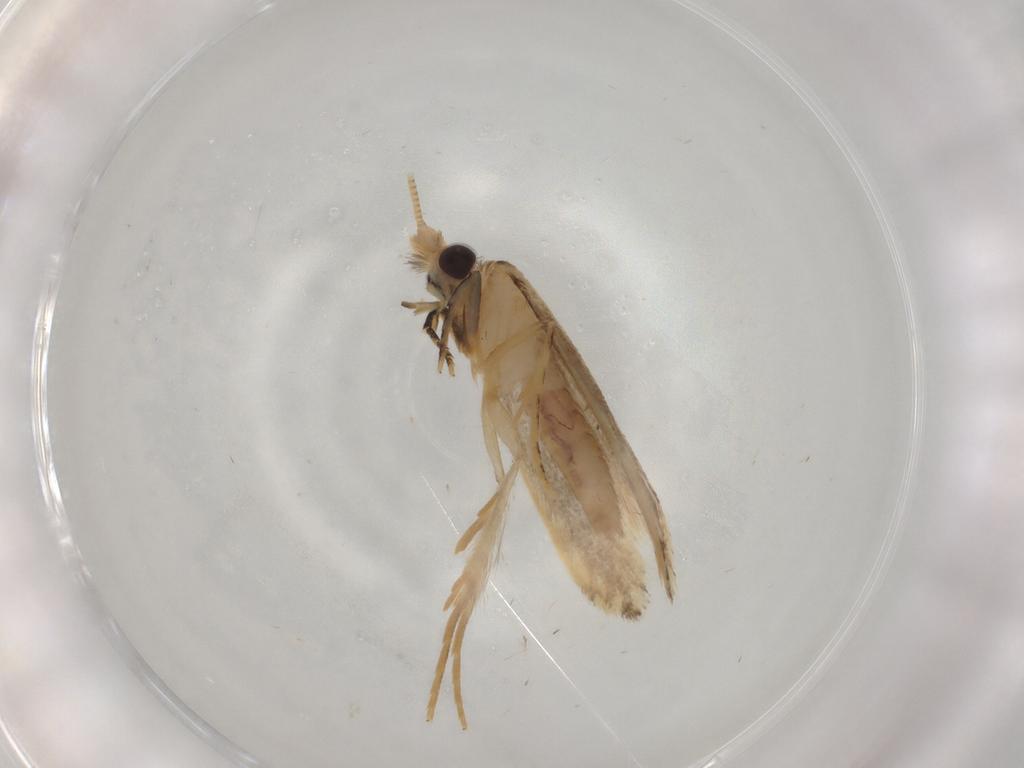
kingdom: Animalia
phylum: Arthropoda
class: Insecta
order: Lepidoptera
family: Nepticulidae
